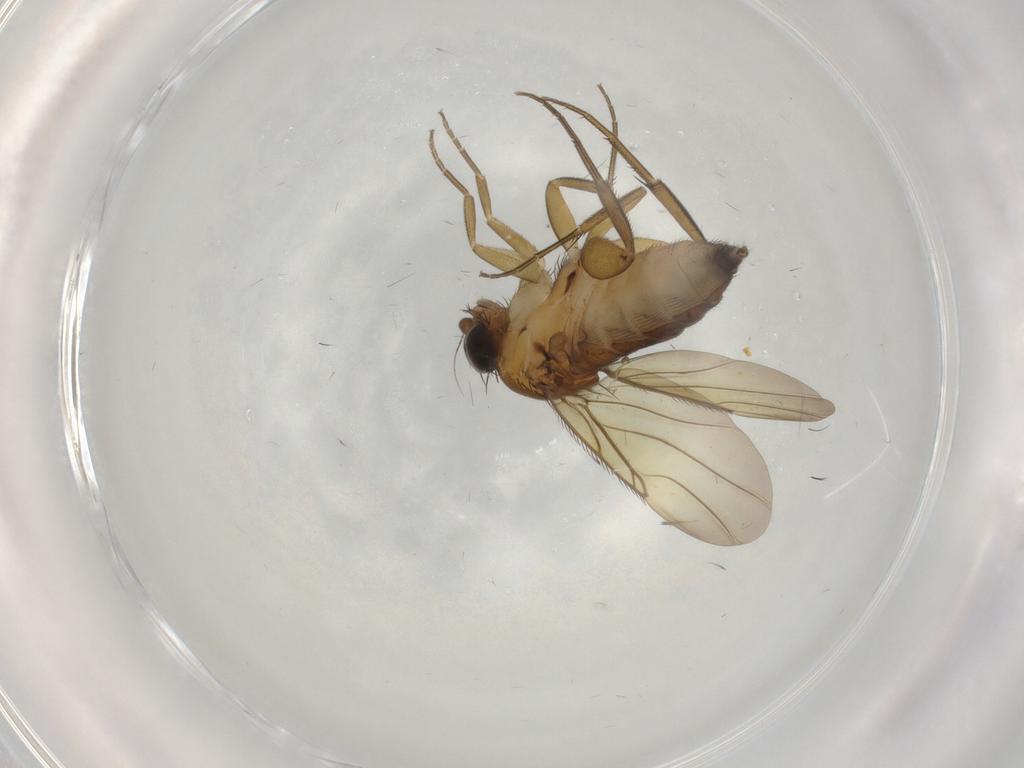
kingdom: Animalia
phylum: Arthropoda
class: Insecta
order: Diptera
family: Phoridae
